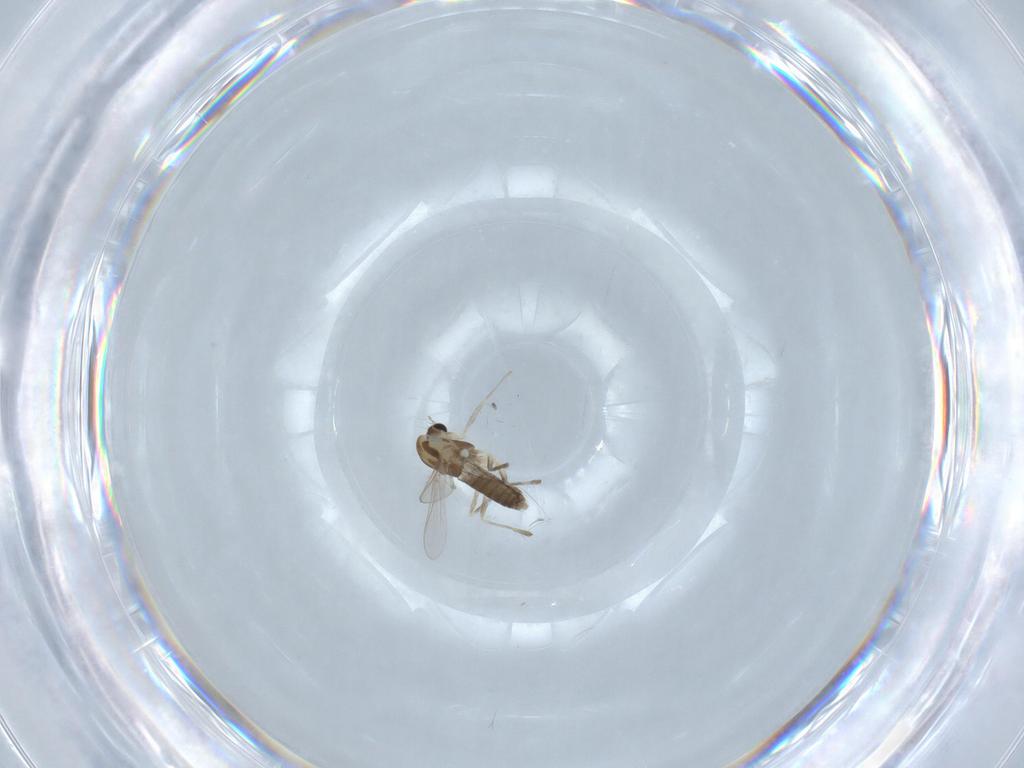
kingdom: Animalia
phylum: Arthropoda
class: Insecta
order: Diptera
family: Chironomidae
